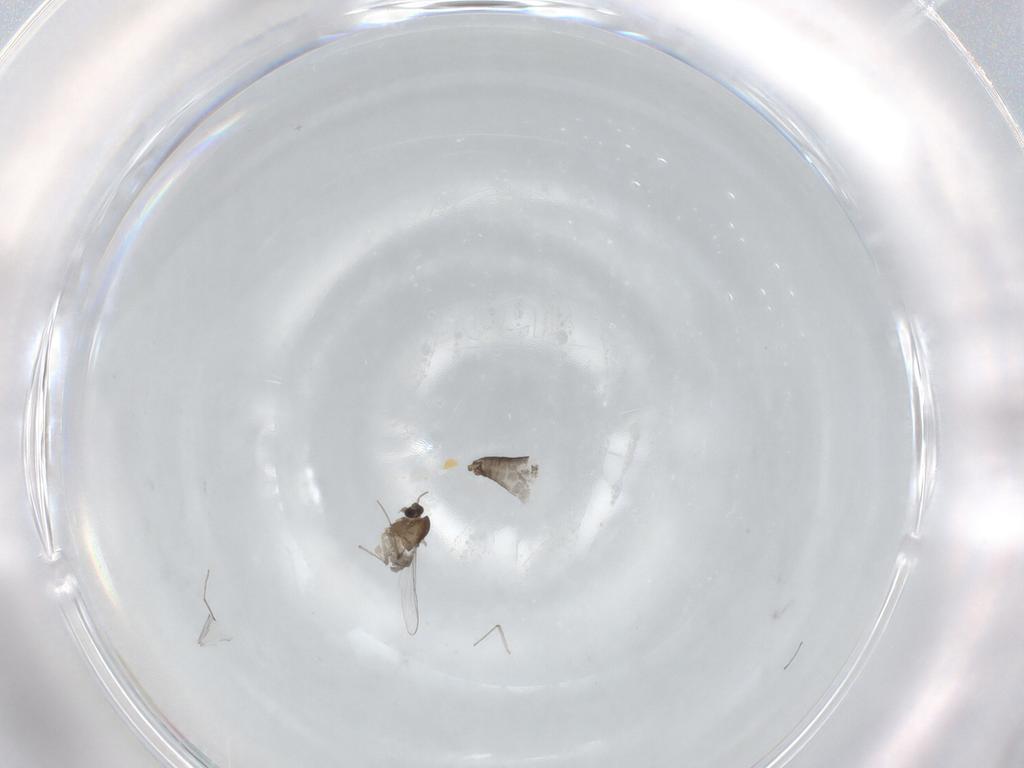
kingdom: Animalia
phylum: Arthropoda
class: Insecta
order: Diptera
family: Chironomidae
